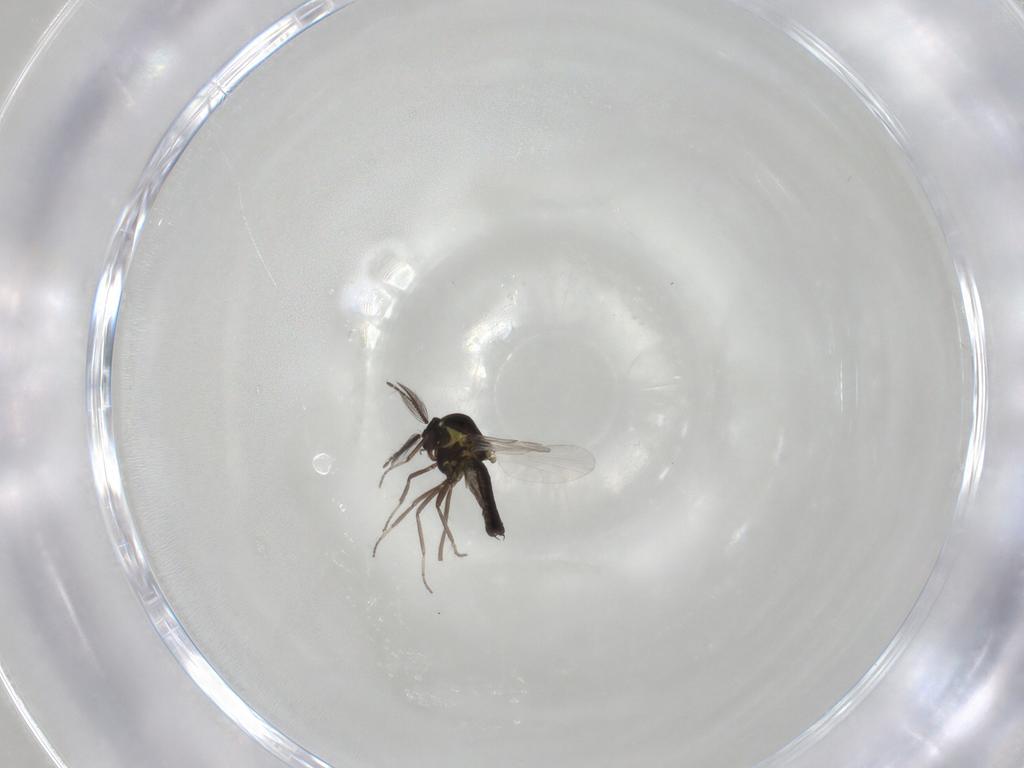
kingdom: Animalia
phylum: Arthropoda
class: Insecta
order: Diptera
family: Ceratopogonidae
